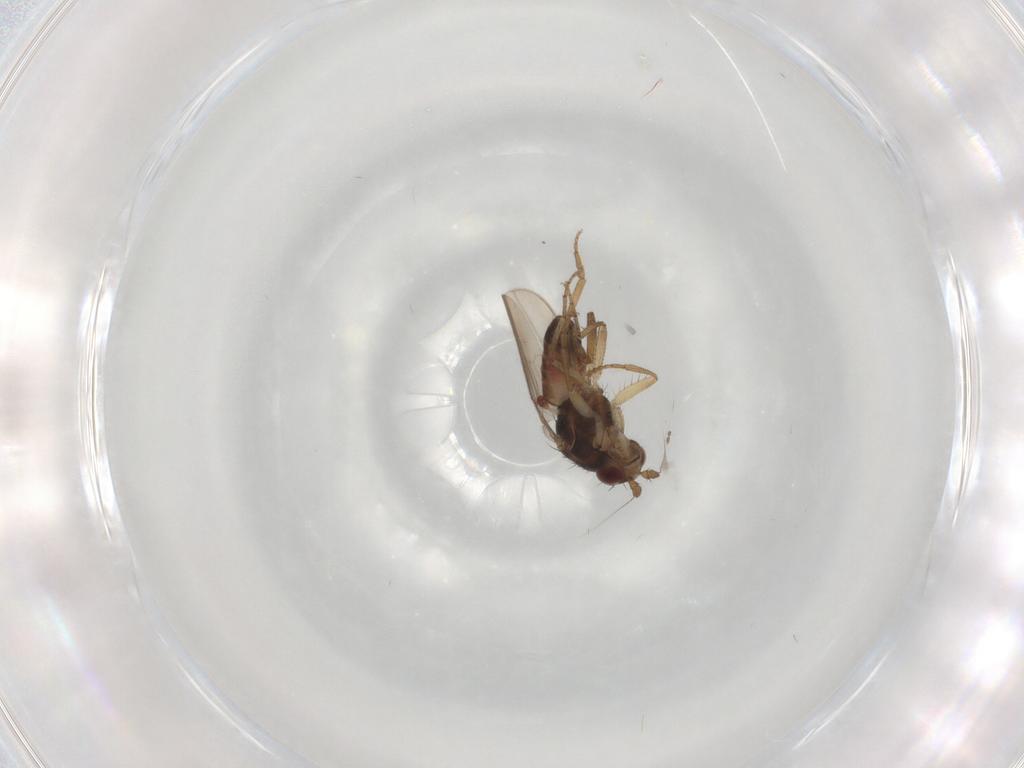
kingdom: Animalia
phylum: Arthropoda
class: Insecta
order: Diptera
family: Sphaeroceridae
